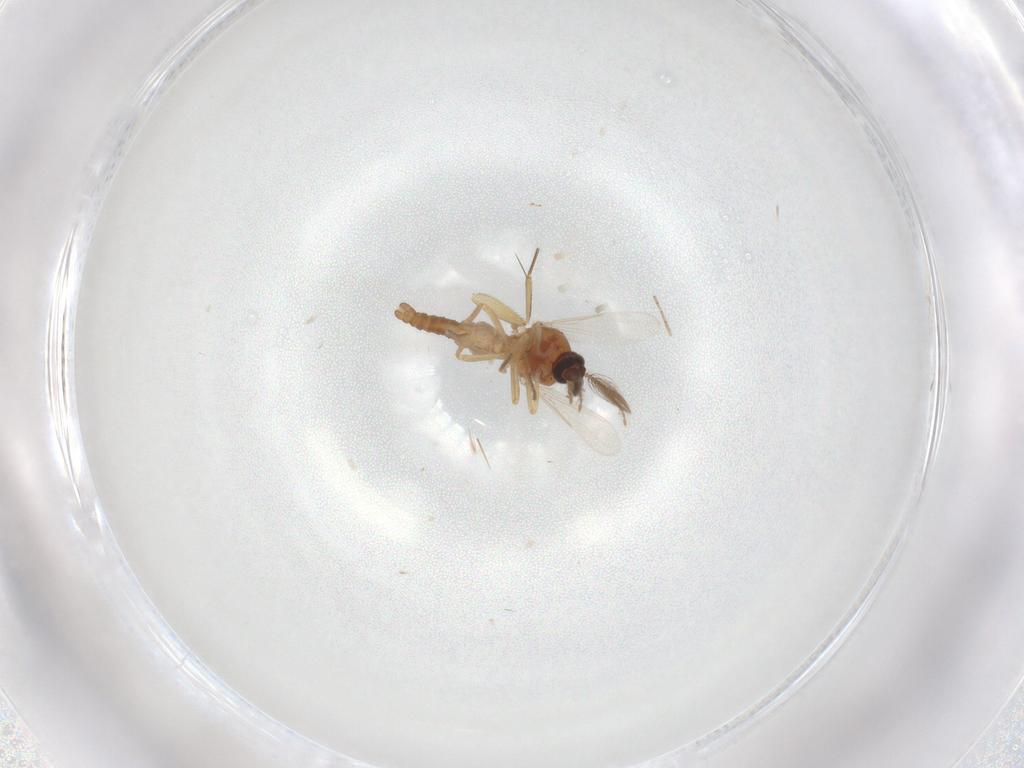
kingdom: Animalia
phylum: Arthropoda
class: Insecta
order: Diptera
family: Ceratopogonidae
